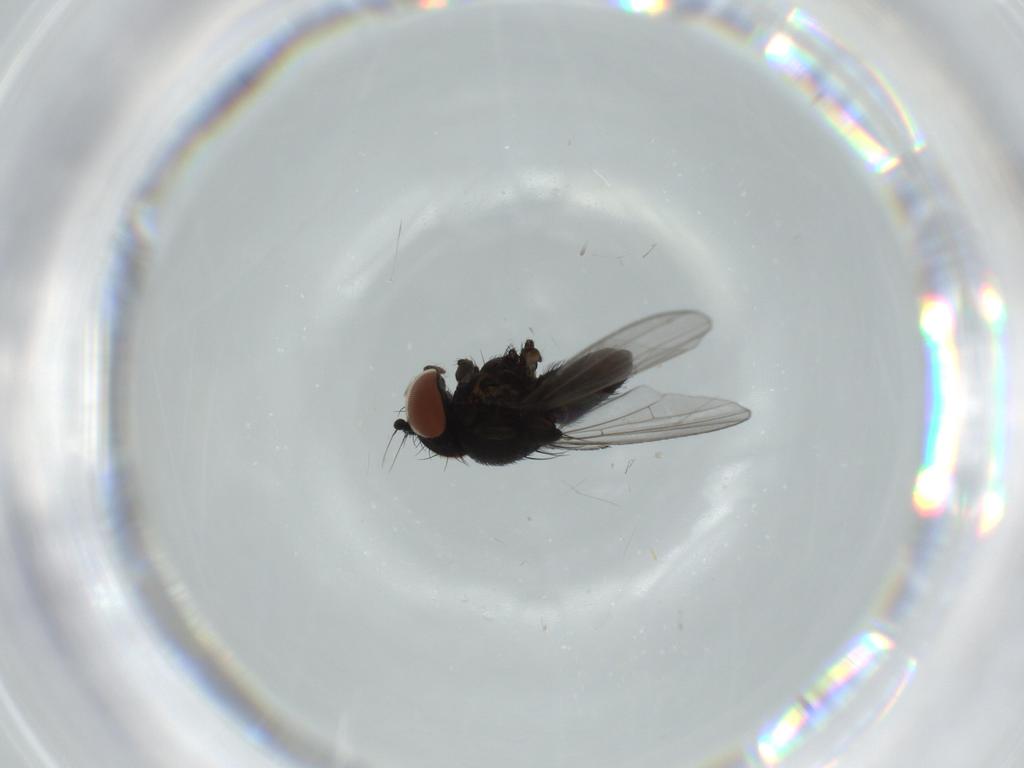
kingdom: Animalia
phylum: Arthropoda
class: Insecta
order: Diptera
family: Milichiidae
